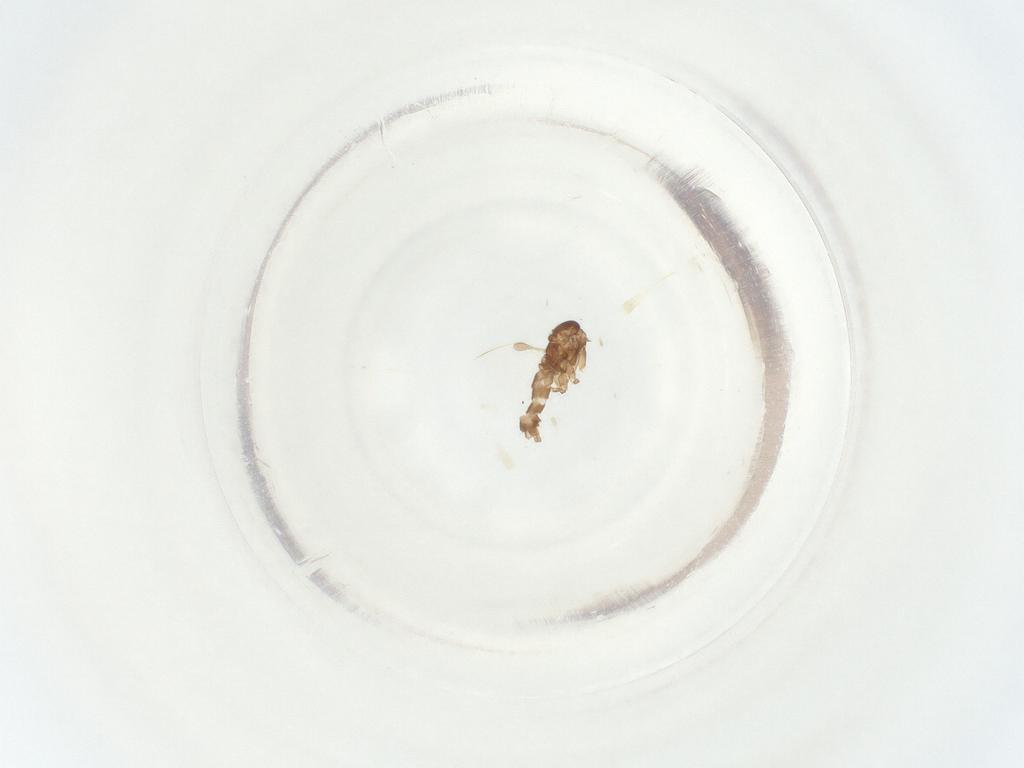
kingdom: Animalia
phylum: Arthropoda
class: Insecta
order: Diptera
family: Sciaridae
